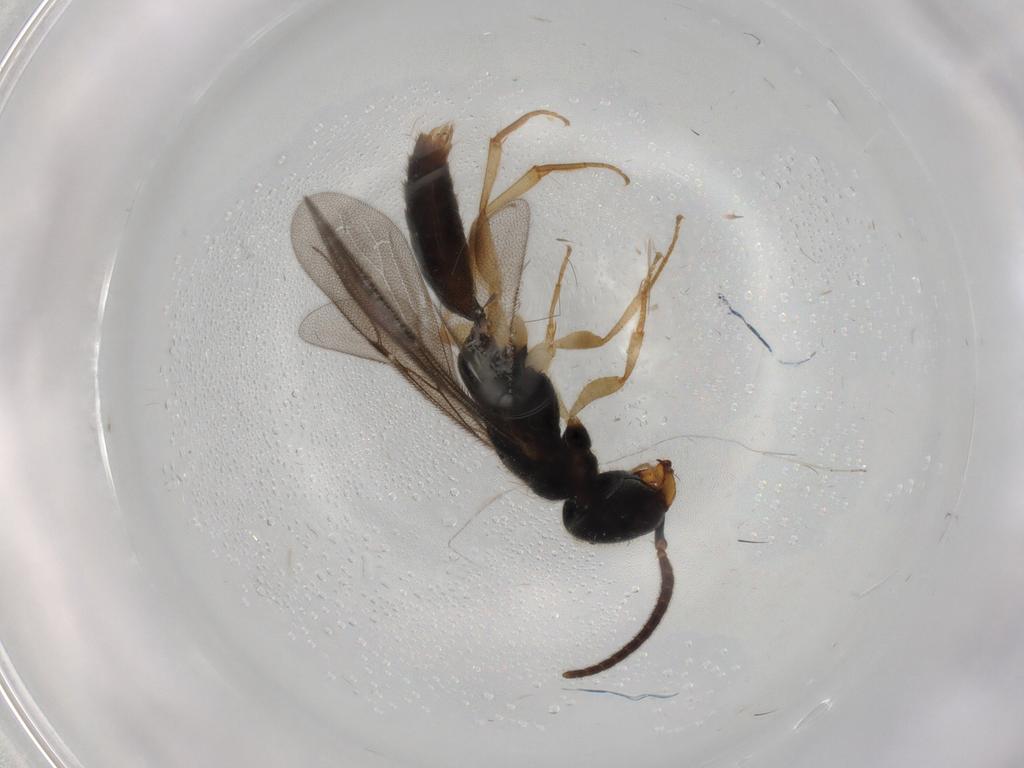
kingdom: Animalia
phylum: Arthropoda
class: Insecta
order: Hymenoptera
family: Bethylidae
